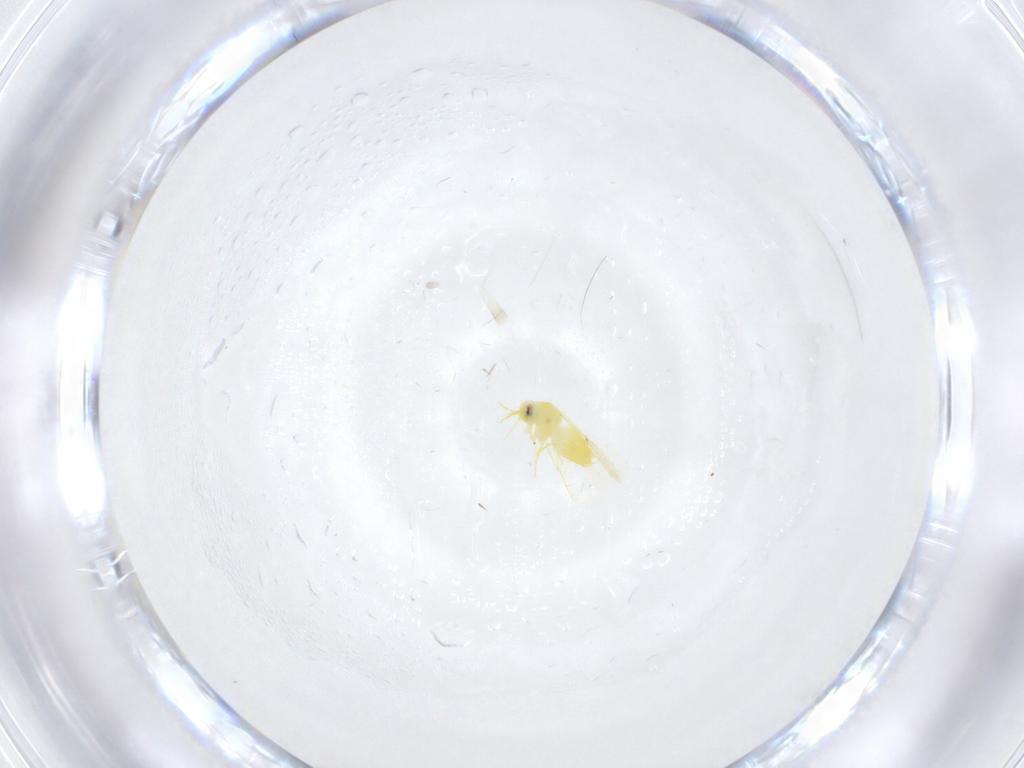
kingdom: Animalia
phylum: Arthropoda
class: Insecta
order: Hemiptera
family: Aleyrodidae
